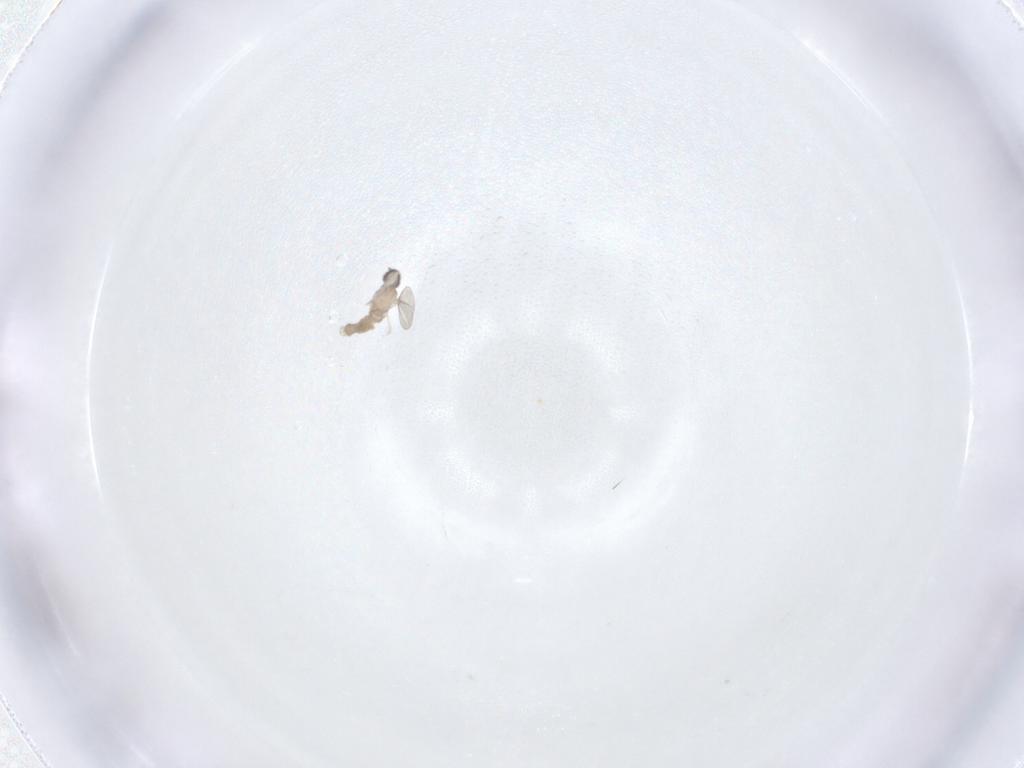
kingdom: Animalia
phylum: Arthropoda
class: Insecta
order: Diptera
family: Cecidomyiidae
